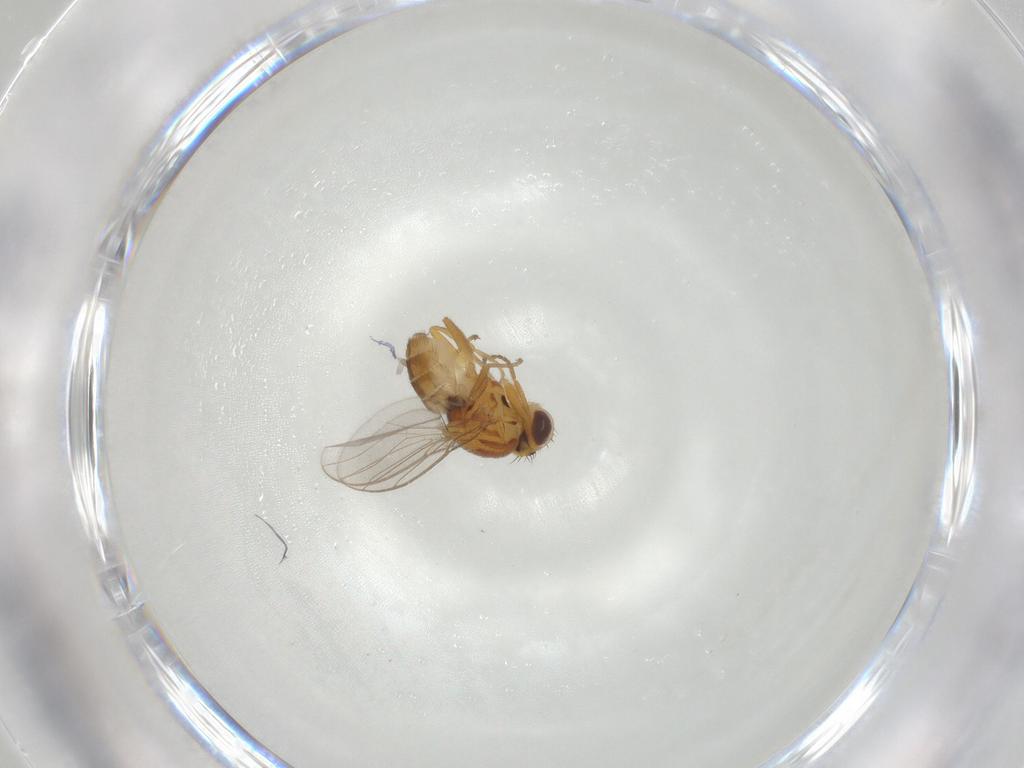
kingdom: Animalia
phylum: Arthropoda
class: Insecta
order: Diptera
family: Chloropidae
